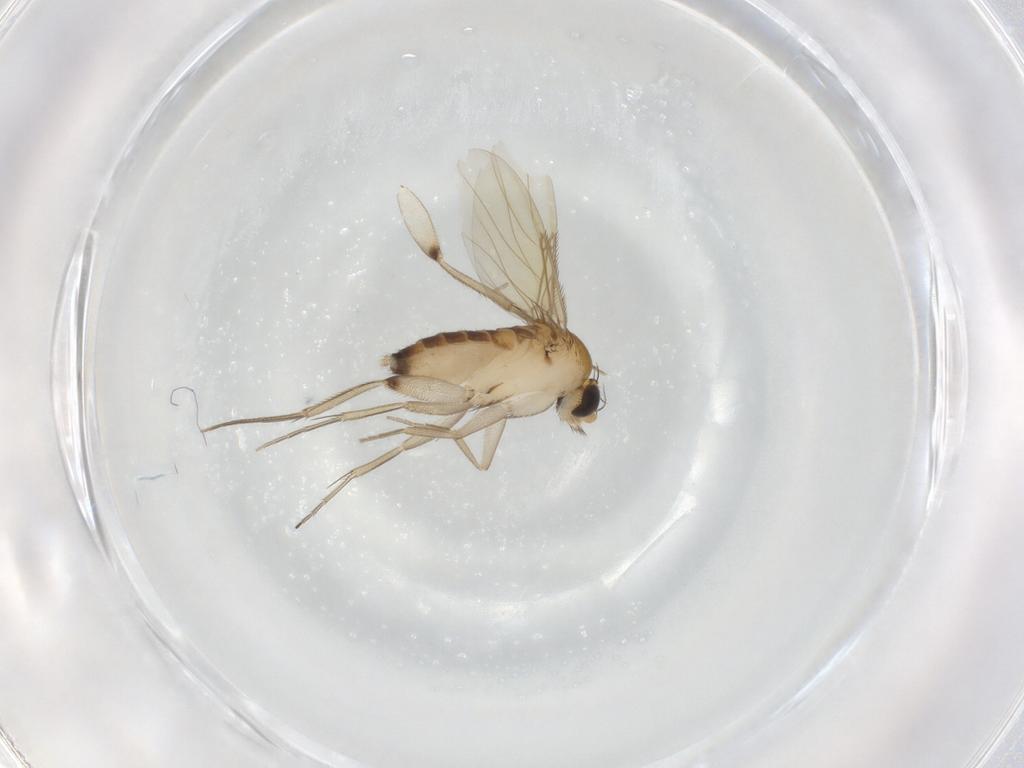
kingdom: Animalia
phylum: Arthropoda
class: Insecta
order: Diptera
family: Phoridae
